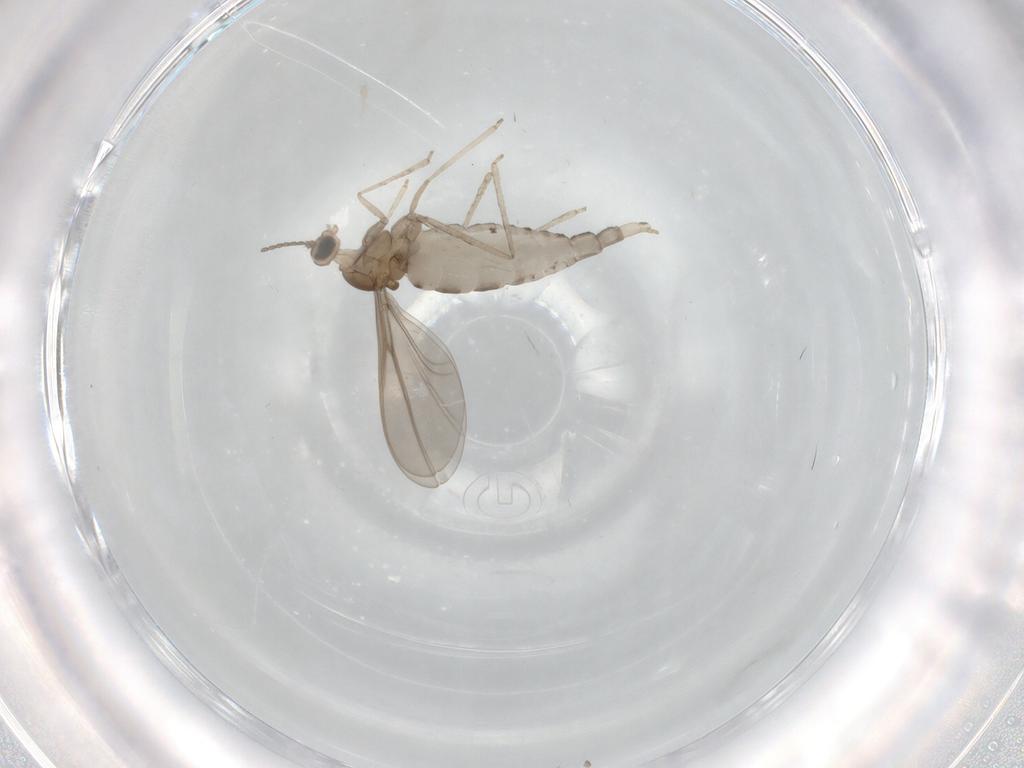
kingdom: Animalia
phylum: Arthropoda
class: Insecta
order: Diptera
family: Cecidomyiidae
